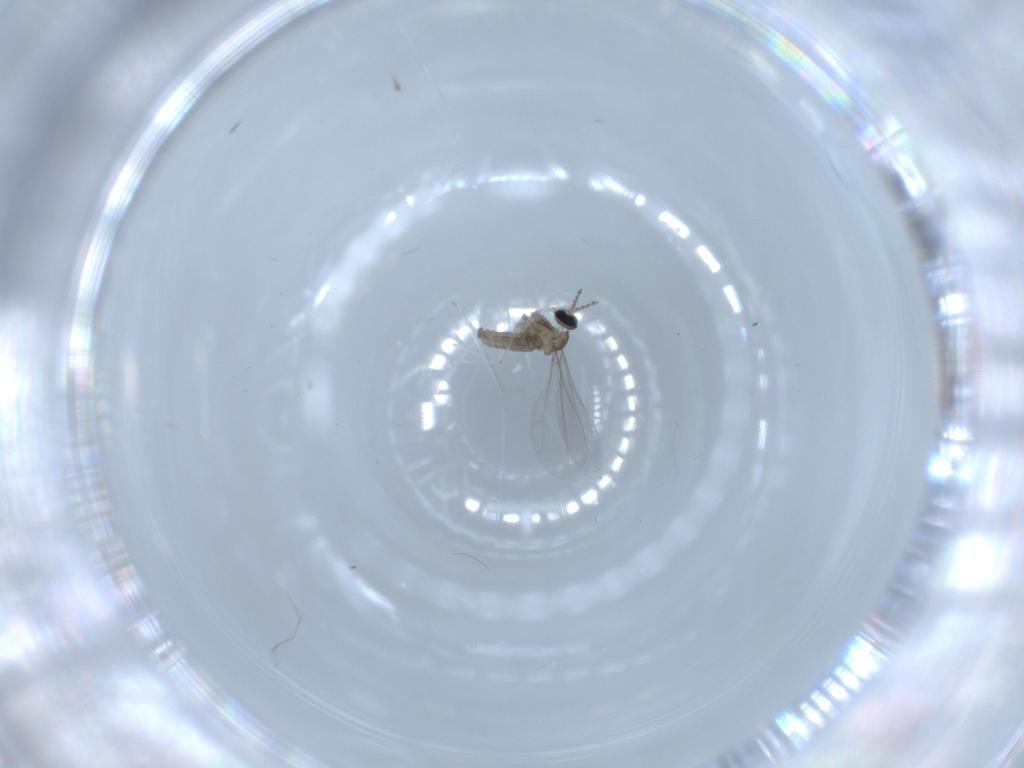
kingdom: Animalia
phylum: Arthropoda
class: Insecta
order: Diptera
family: Cecidomyiidae
